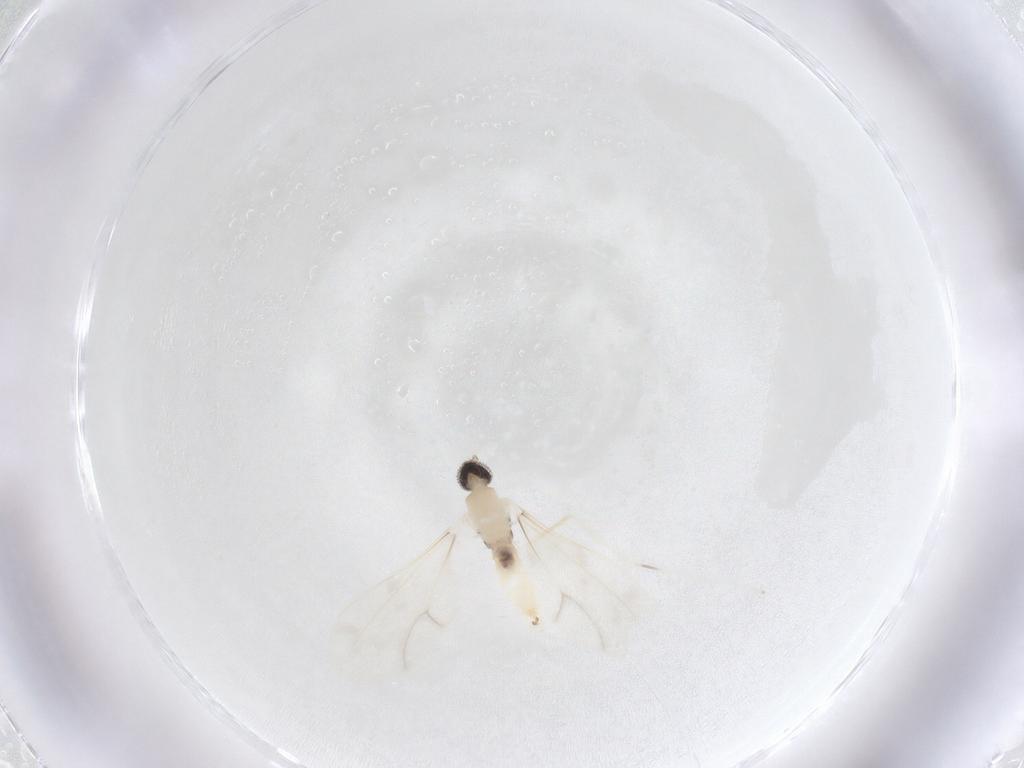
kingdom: Animalia
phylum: Arthropoda
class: Insecta
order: Diptera
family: Cecidomyiidae
